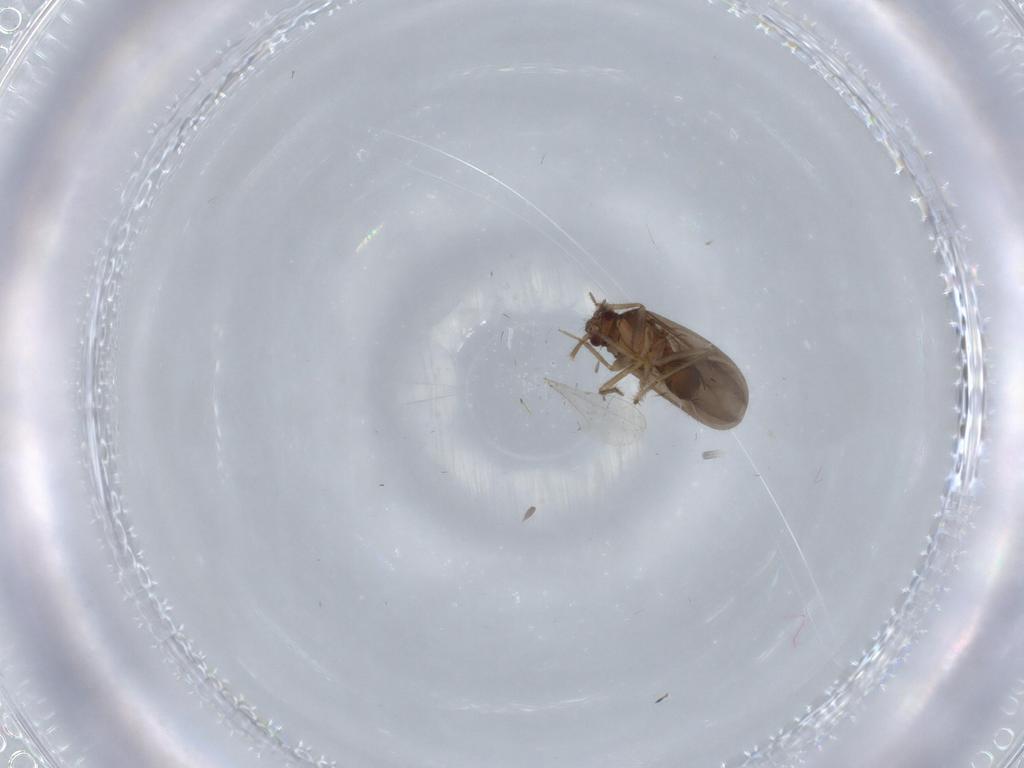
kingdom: Animalia
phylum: Arthropoda
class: Insecta
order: Hemiptera
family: Ceratocombidae
